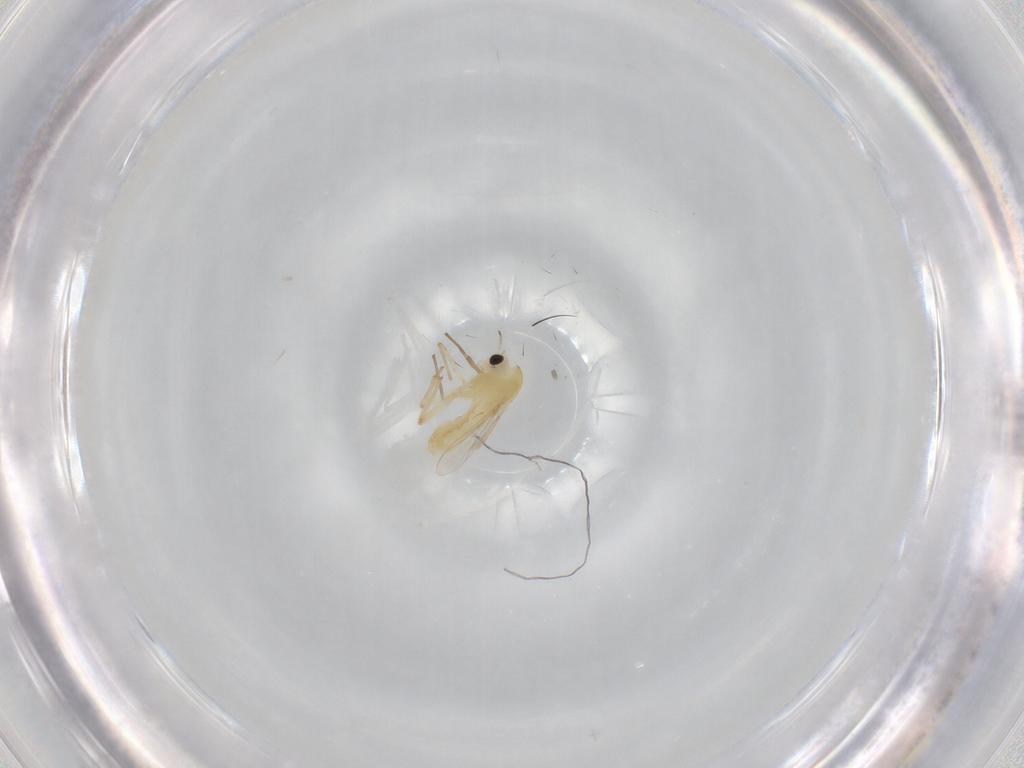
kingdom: Animalia
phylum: Arthropoda
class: Insecta
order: Diptera
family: Chironomidae
